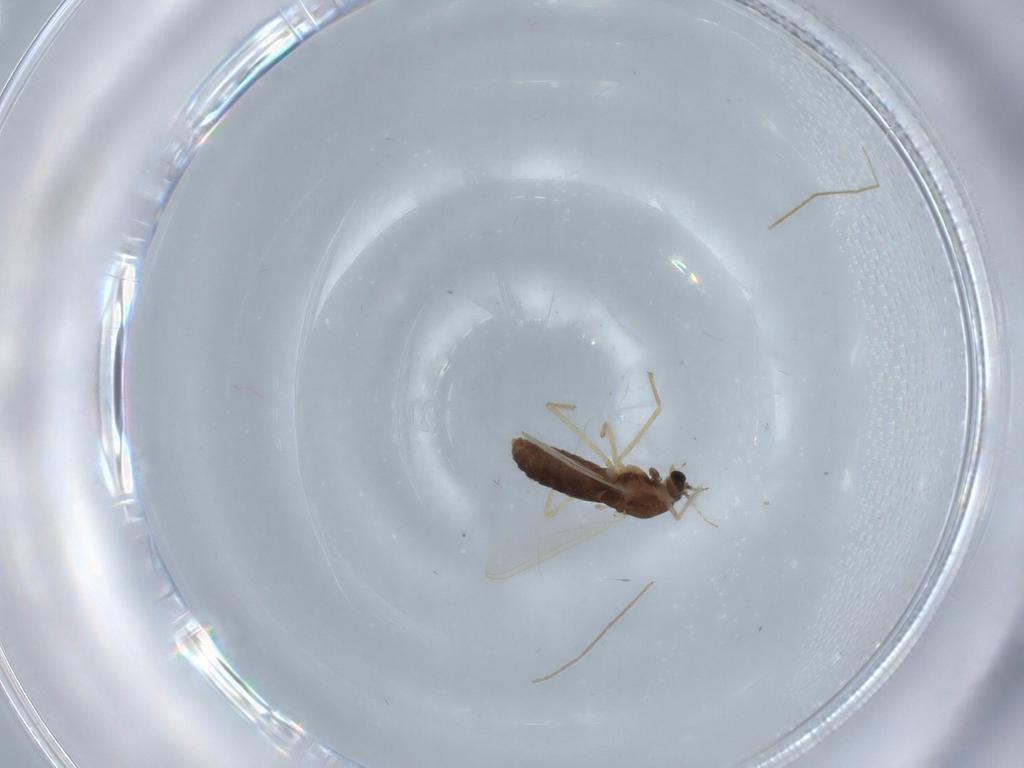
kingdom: Animalia
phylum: Arthropoda
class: Insecta
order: Diptera
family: Chironomidae
